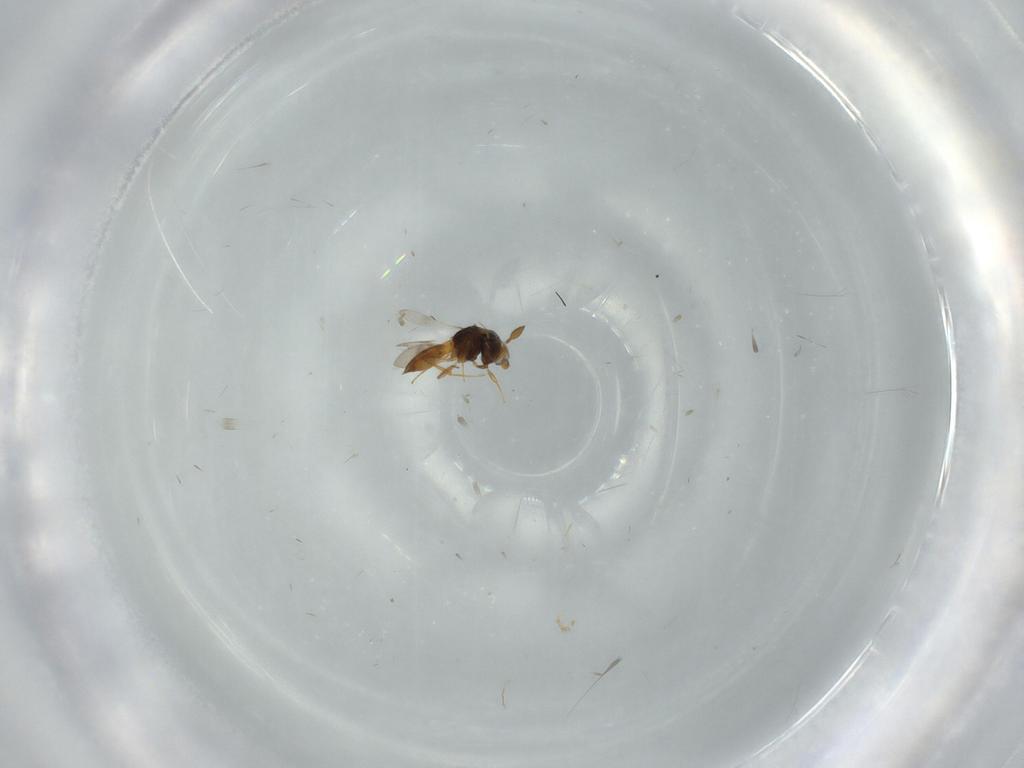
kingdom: Animalia
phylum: Arthropoda
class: Insecta
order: Hymenoptera
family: Scelionidae
